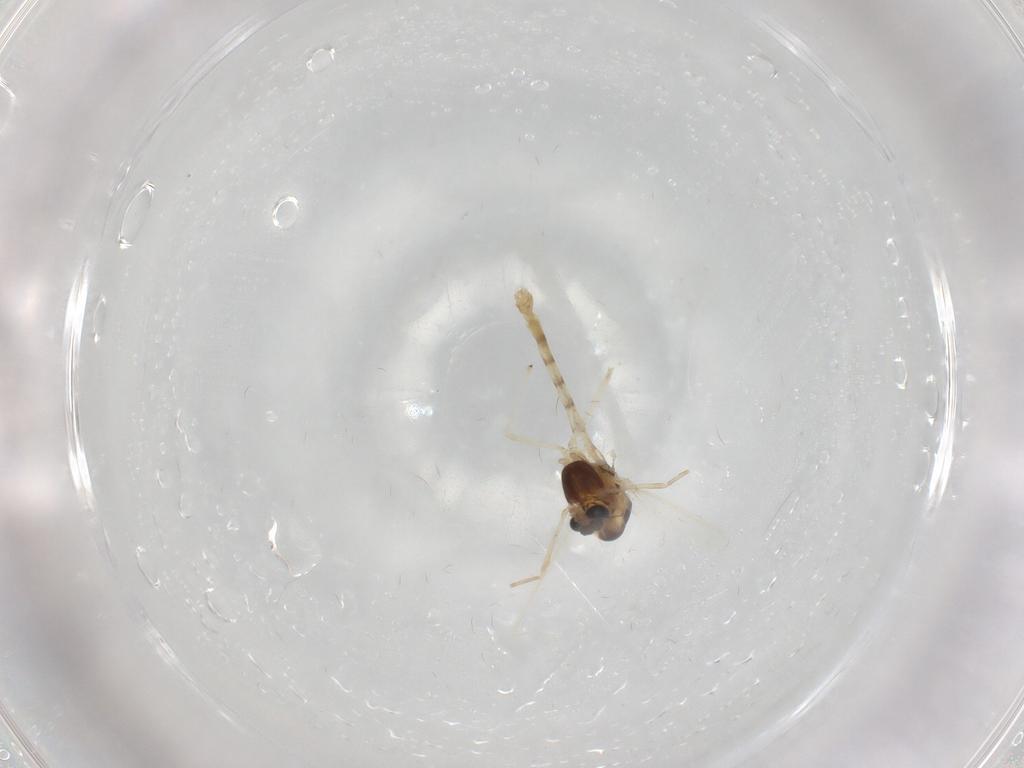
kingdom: Animalia
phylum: Arthropoda
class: Insecta
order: Diptera
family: Chironomidae
